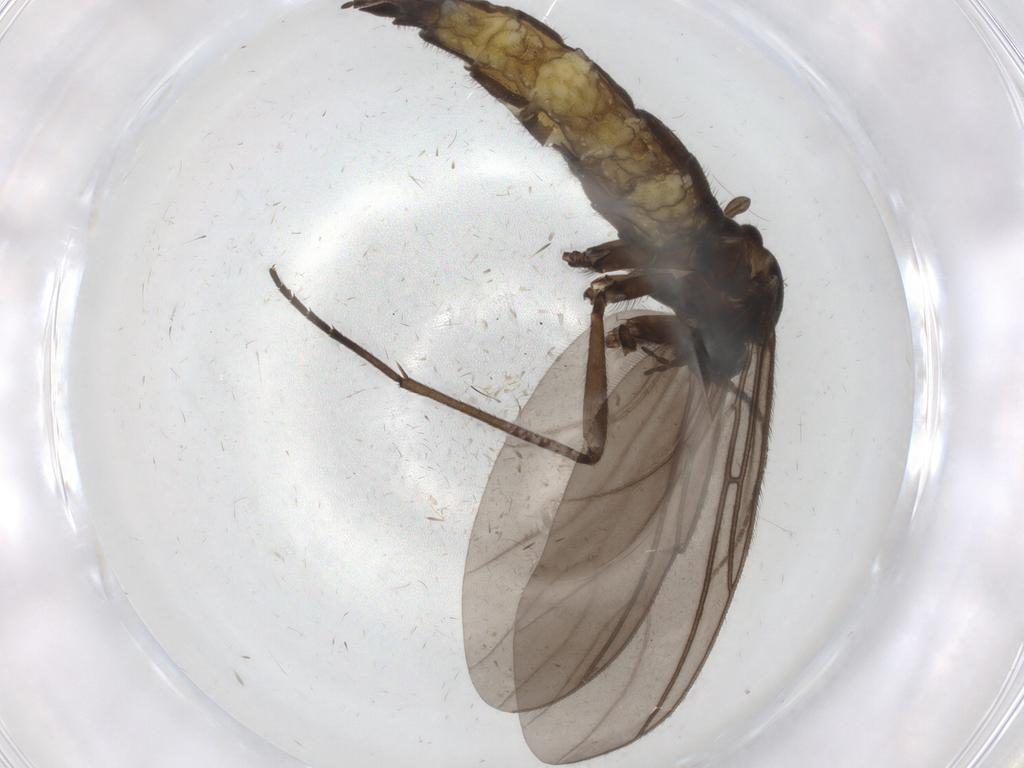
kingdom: Animalia
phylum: Arthropoda
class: Insecta
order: Diptera
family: Sciaridae
